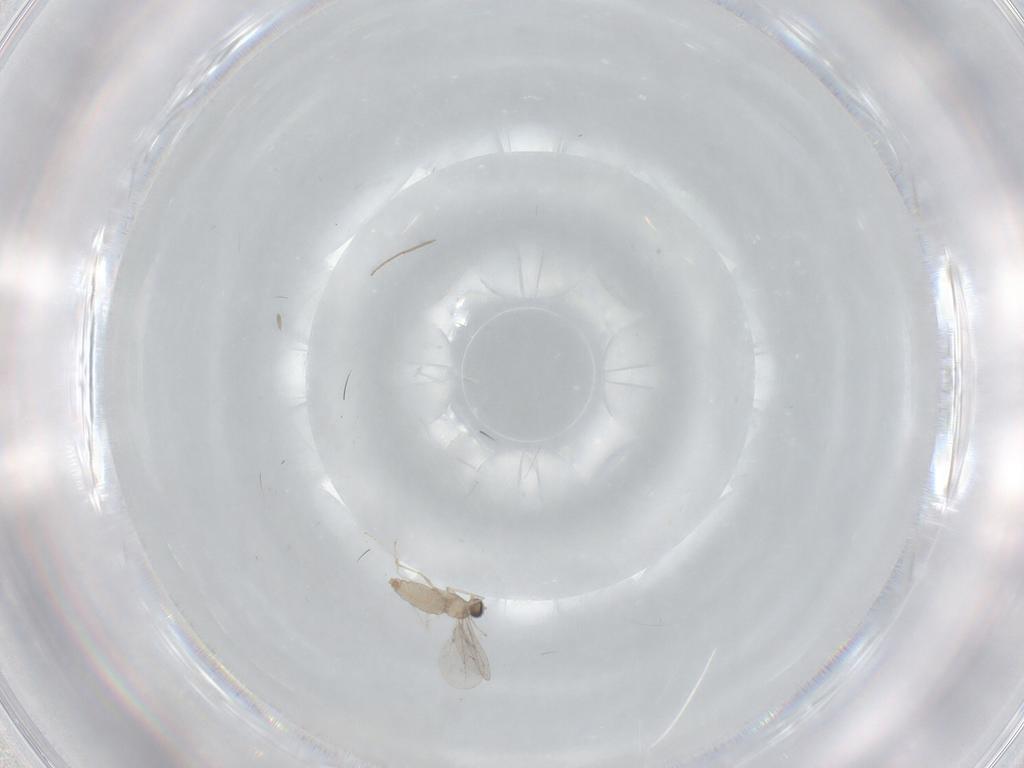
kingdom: Animalia
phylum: Arthropoda
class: Insecta
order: Diptera
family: Cecidomyiidae
